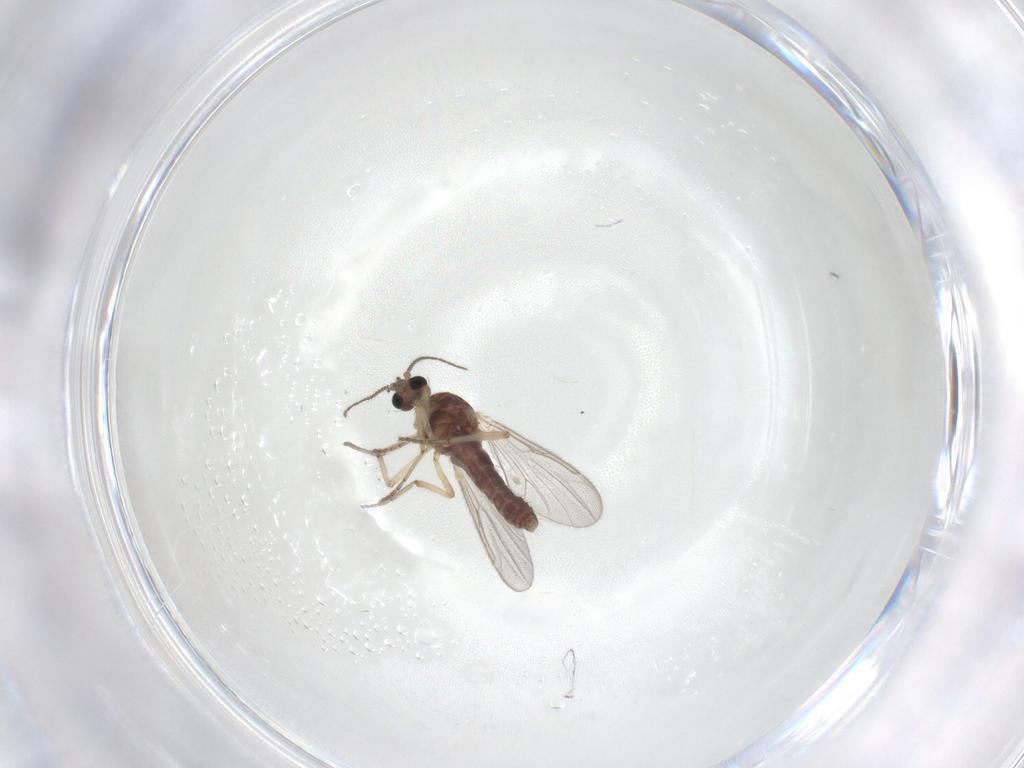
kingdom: Animalia
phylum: Arthropoda
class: Insecta
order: Diptera
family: Ceratopogonidae
